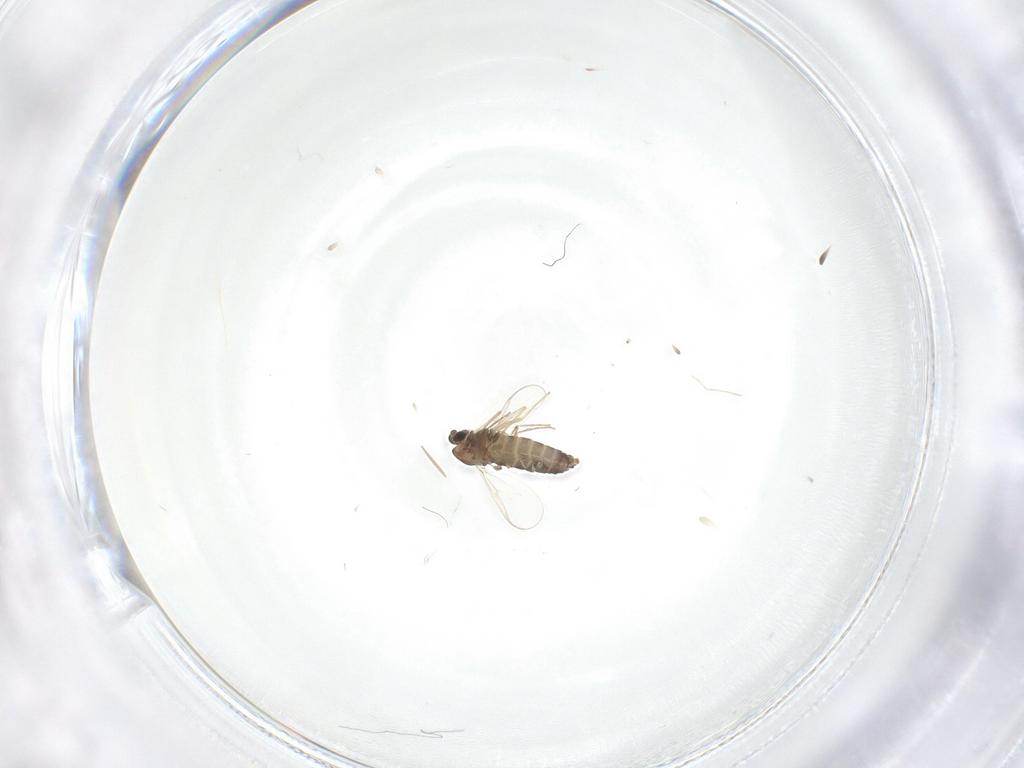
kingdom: Animalia
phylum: Arthropoda
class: Insecta
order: Diptera
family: Chironomidae
